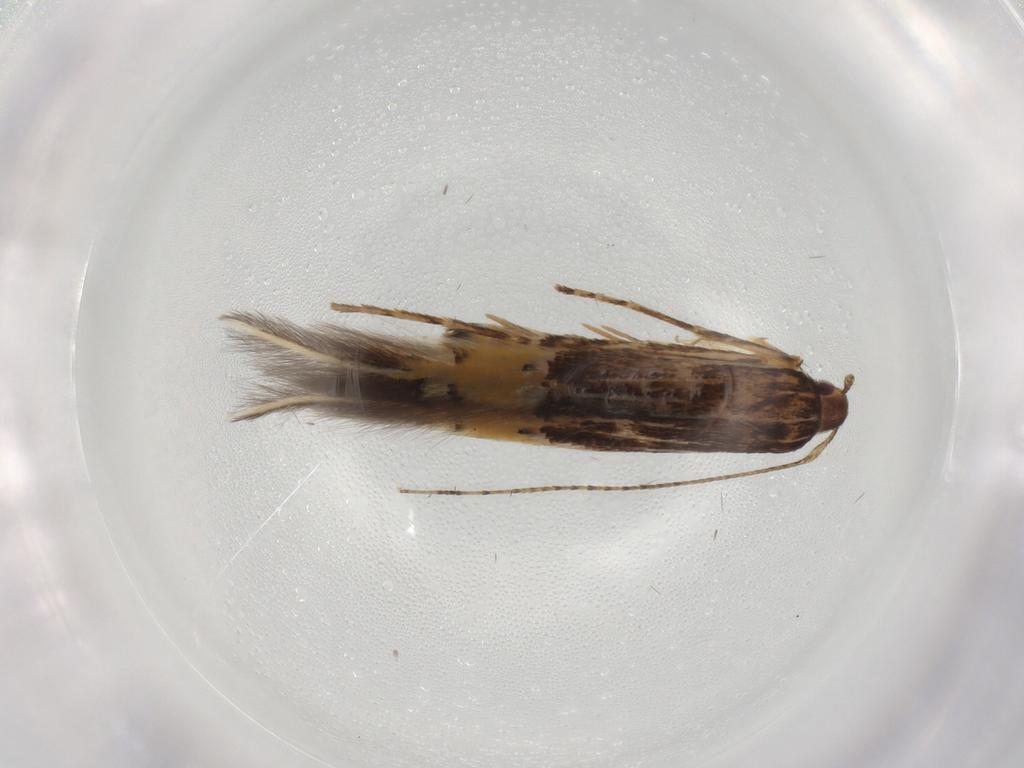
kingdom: Animalia
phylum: Arthropoda
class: Insecta
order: Lepidoptera
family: Cosmopterigidae
